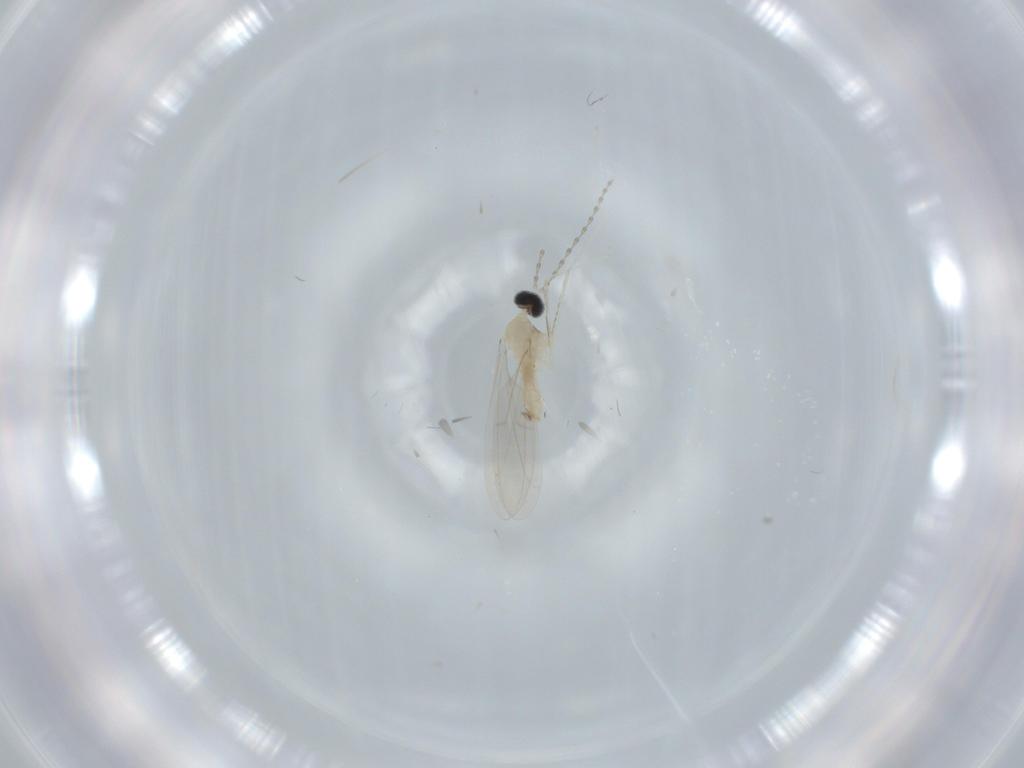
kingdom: Animalia
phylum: Arthropoda
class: Insecta
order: Diptera
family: Cecidomyiidae
